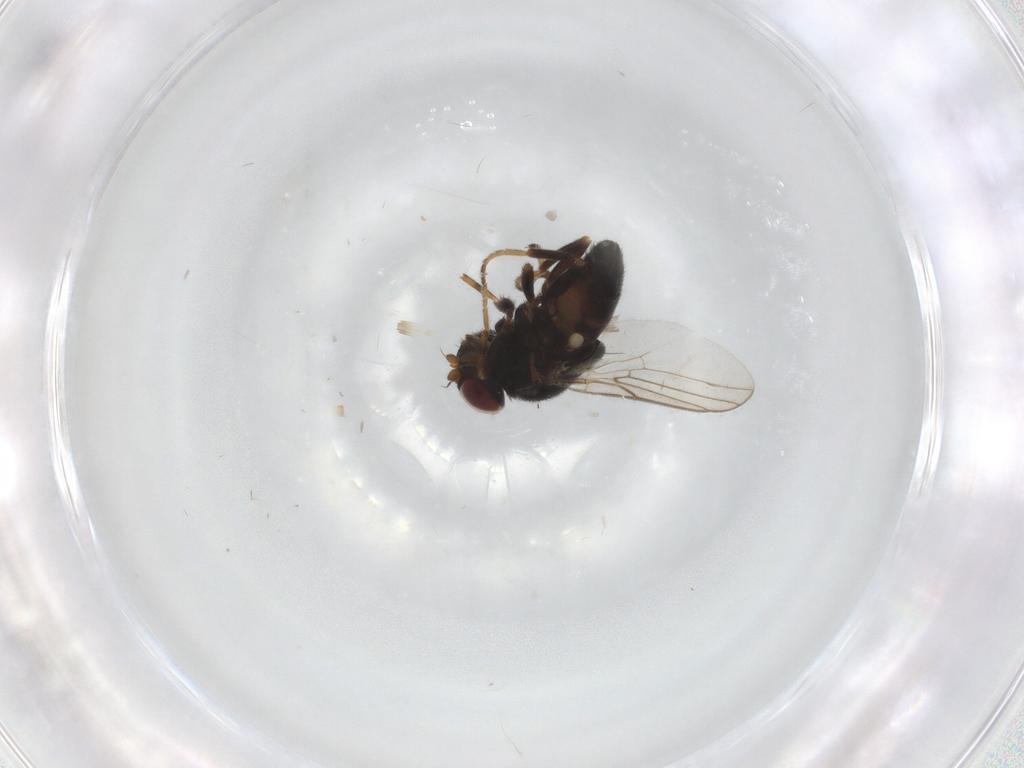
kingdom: Animalia
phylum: Arthropoda
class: Insecta
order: Diptera
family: Chloropidae
